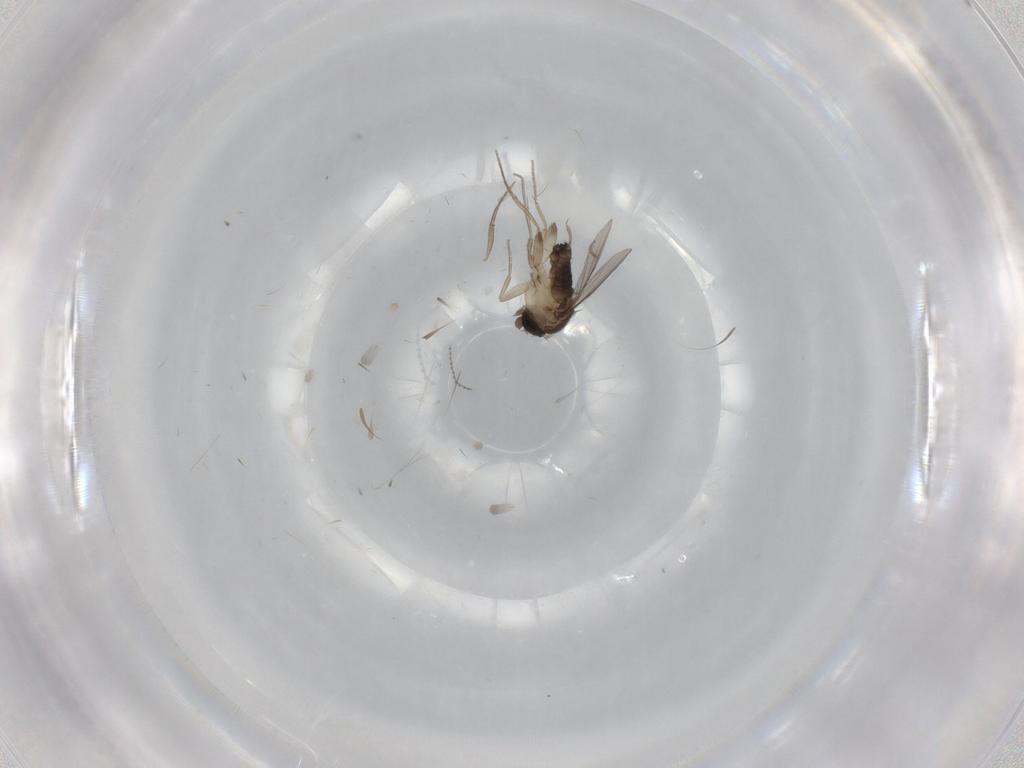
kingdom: Animalia
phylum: Arthropoda
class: Insecta
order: Diptera
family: Phoridae
